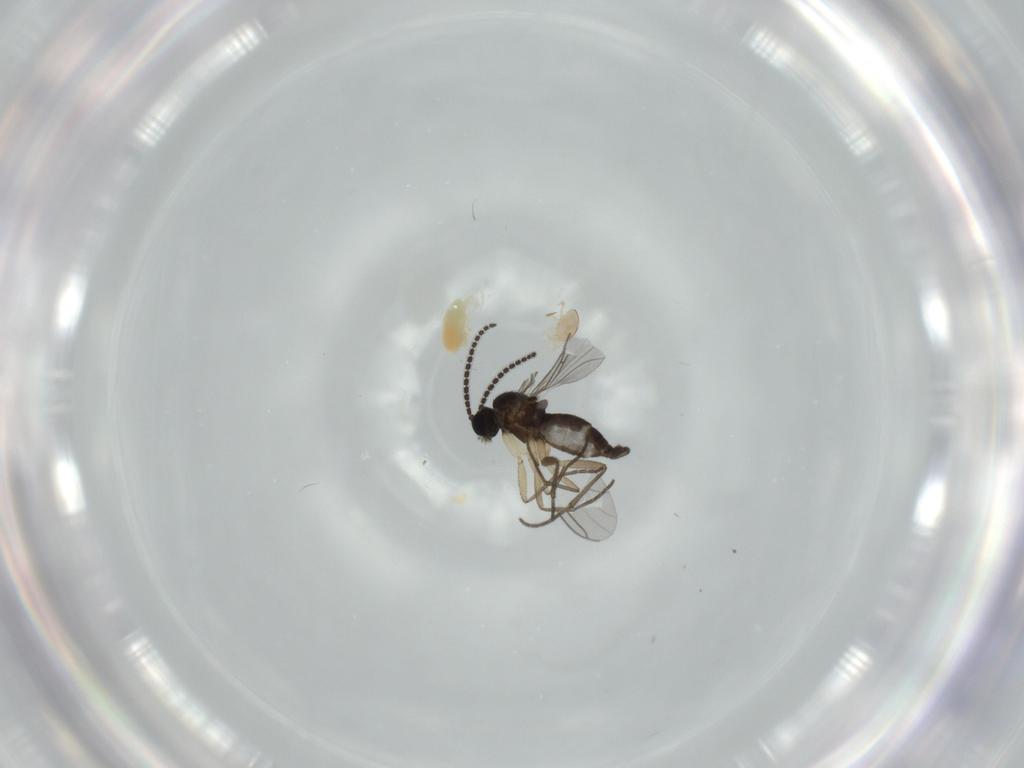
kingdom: Animalia
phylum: Arthropoda
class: Insecta
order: Diptera
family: Sciaridae
